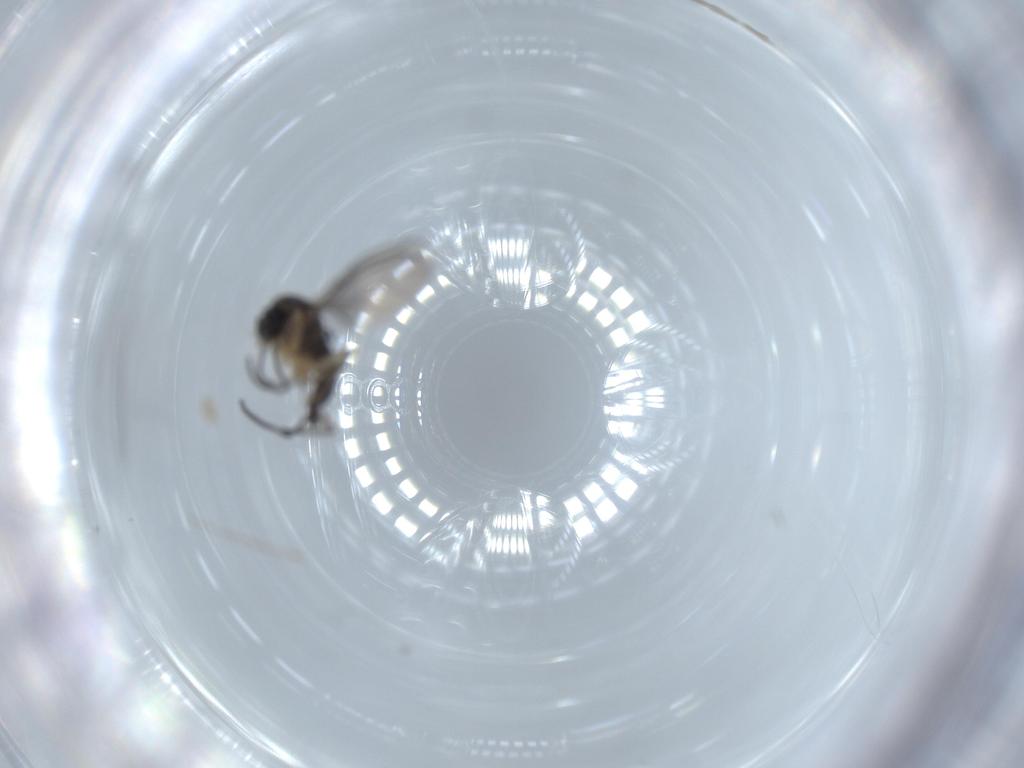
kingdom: Animalia
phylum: Arthropoda
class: Insecta
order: Diptera
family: Sciaridae
